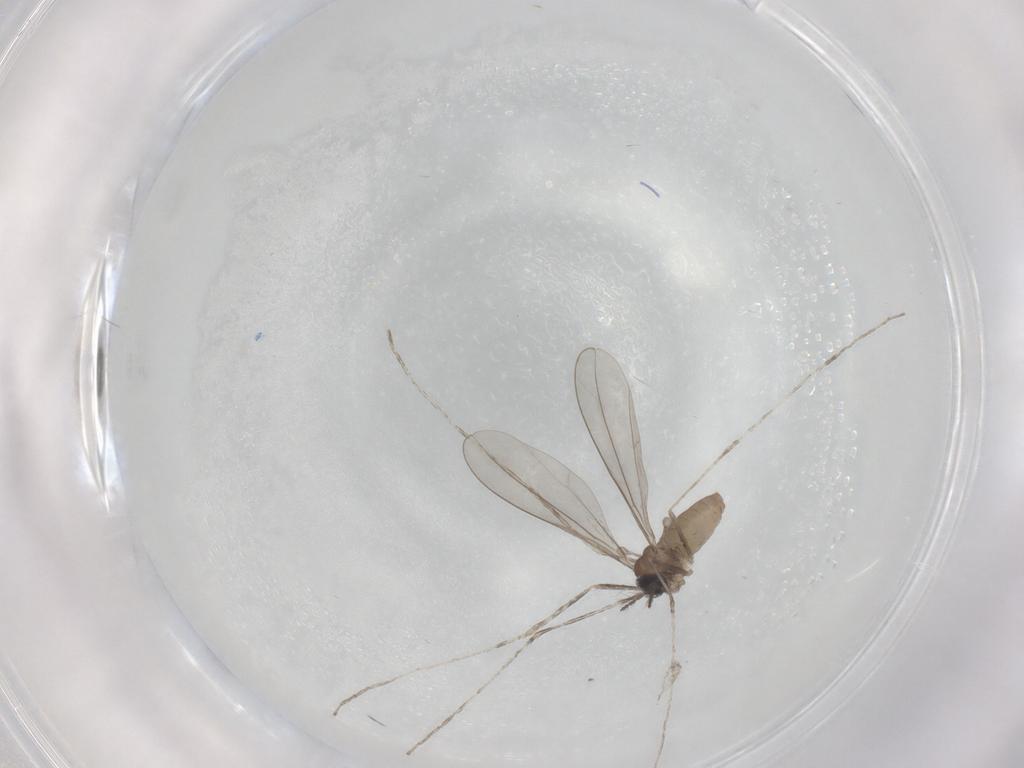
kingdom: Animalia
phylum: Arthropoda
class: Insecta
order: Diptera
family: Cecidomyiidae
